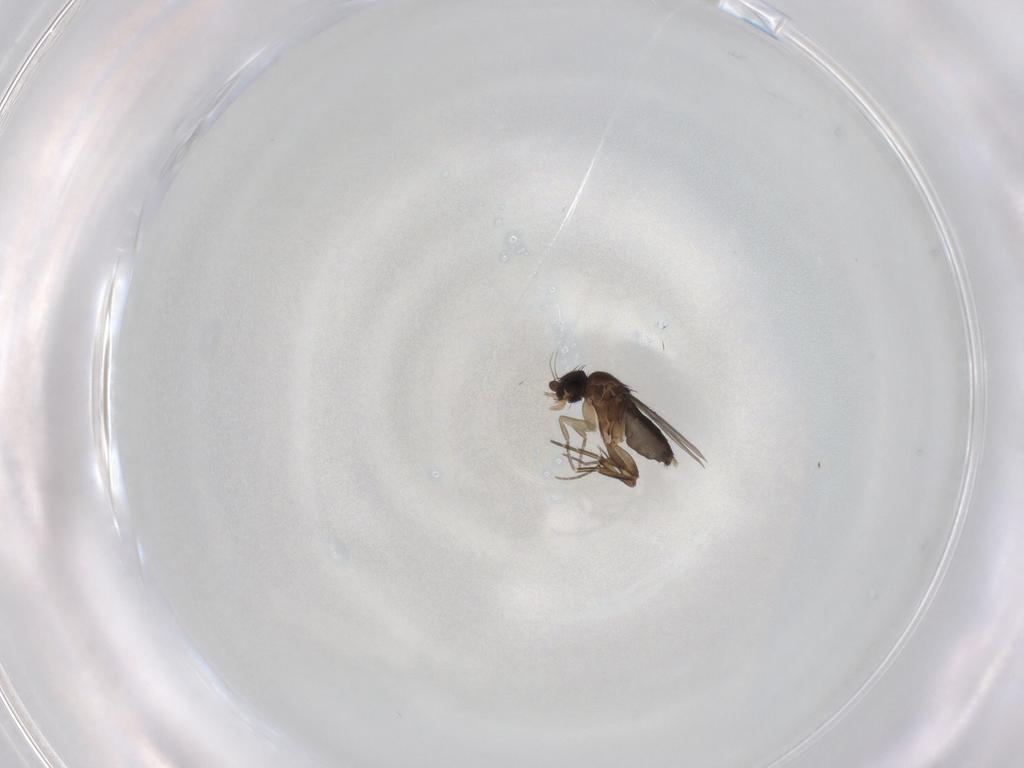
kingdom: Animalia
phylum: Arthropoda
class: Insecta
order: Diptera
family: Phoridae
